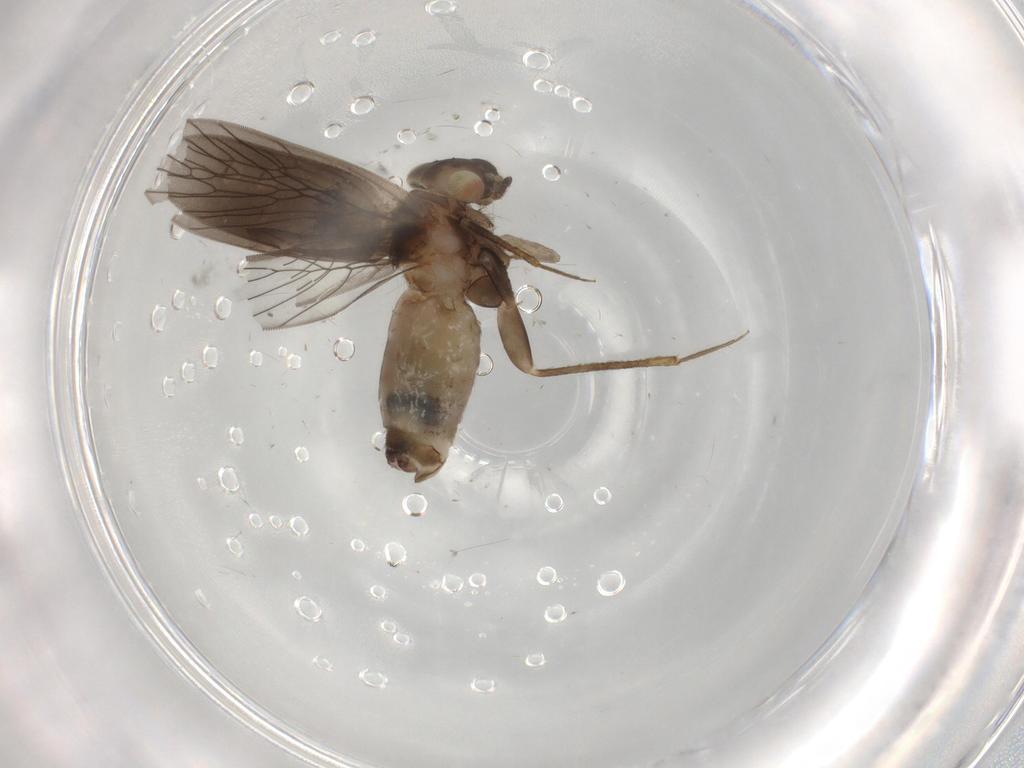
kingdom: Animalia
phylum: Arthropoda
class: Insecta
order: Psocodea
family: Lepidopsocidae
